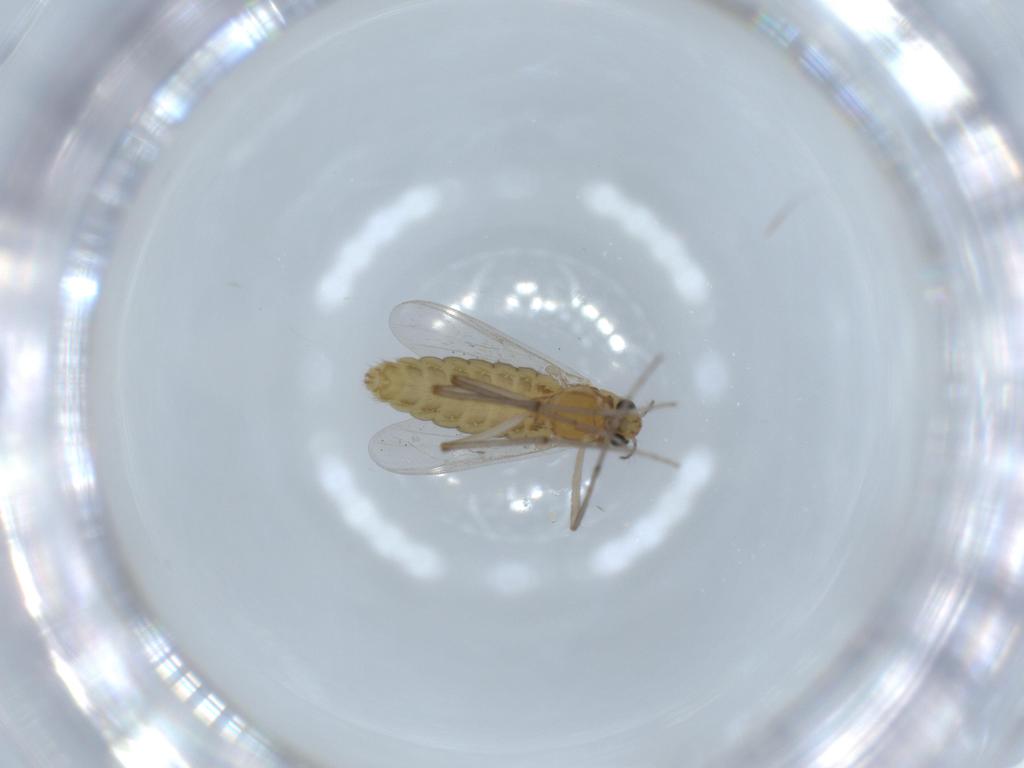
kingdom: Animalia
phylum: Arthropoda
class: Insecta
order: Diptera
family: Chironomidae
